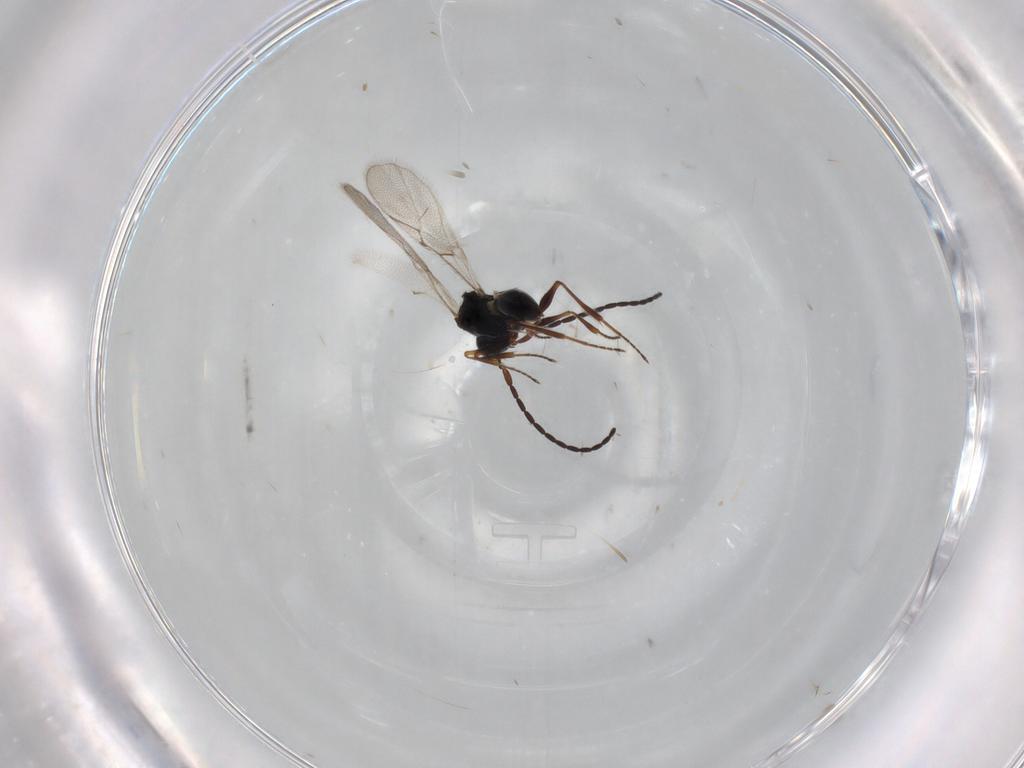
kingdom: Animalia
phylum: Arthropoda
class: Insecta
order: Hymenoptera
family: Figitidae
